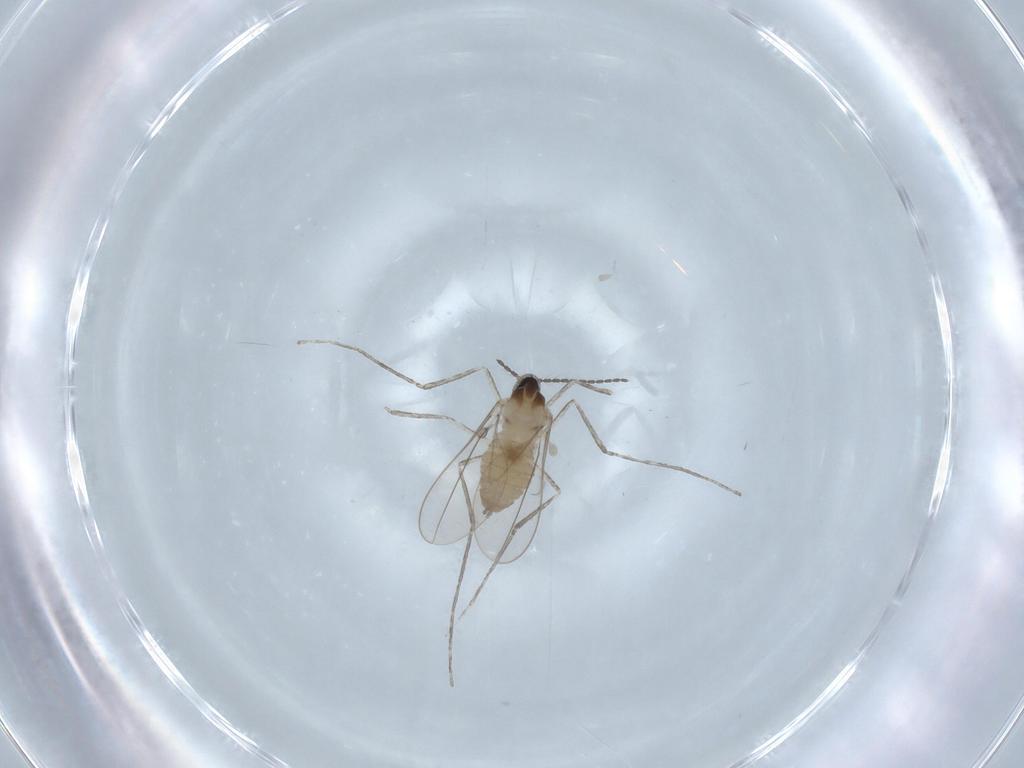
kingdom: Animalia
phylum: Arthropoda
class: Insecta
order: Diptera
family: Cecidomyiidae
